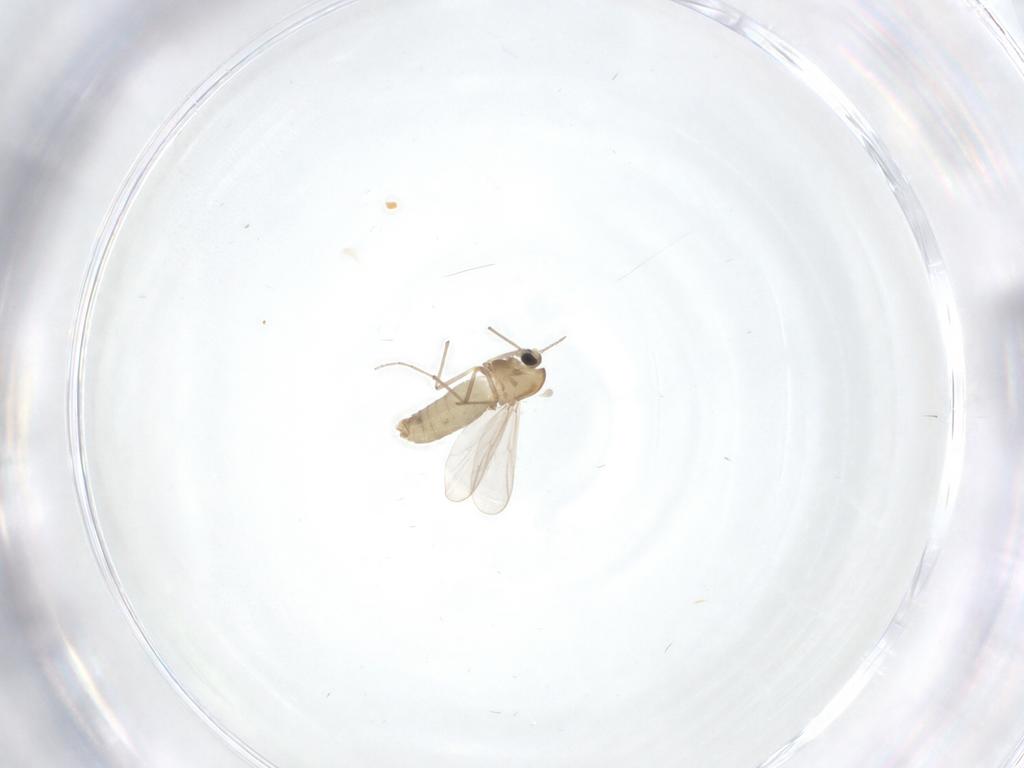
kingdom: Animalia
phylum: Arthropoda
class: Insecta
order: Diptera
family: Chironomidae
